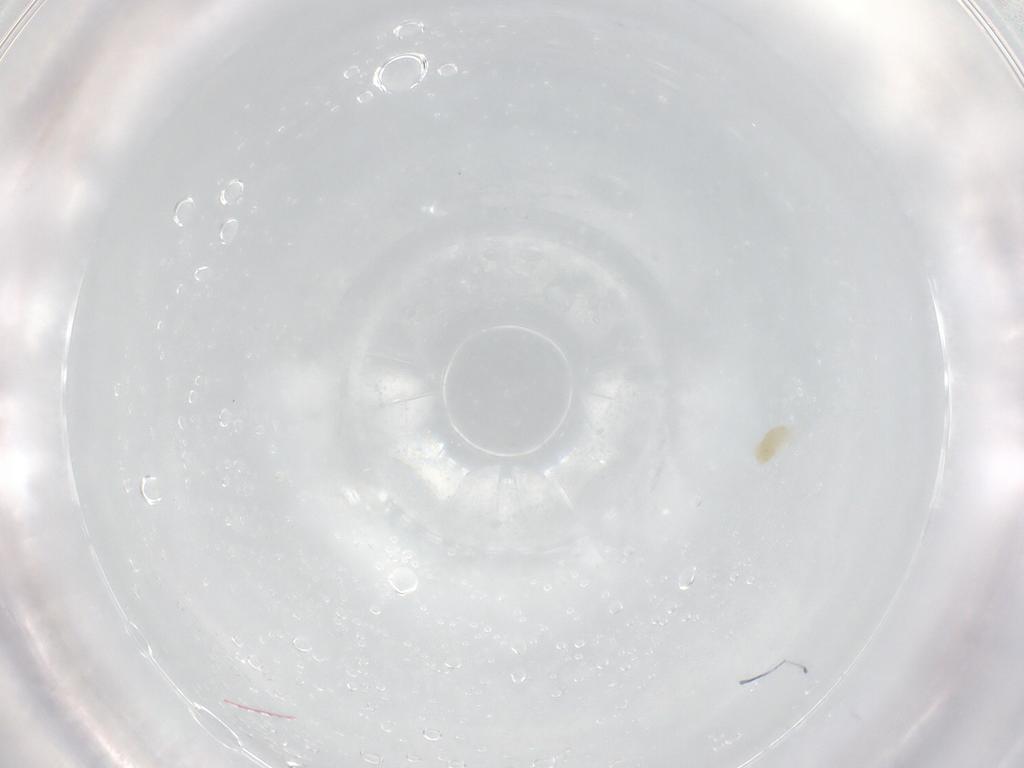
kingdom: Animalia
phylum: Arthropoda
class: Arachnida
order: Trombidiformes
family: Eupodidae
